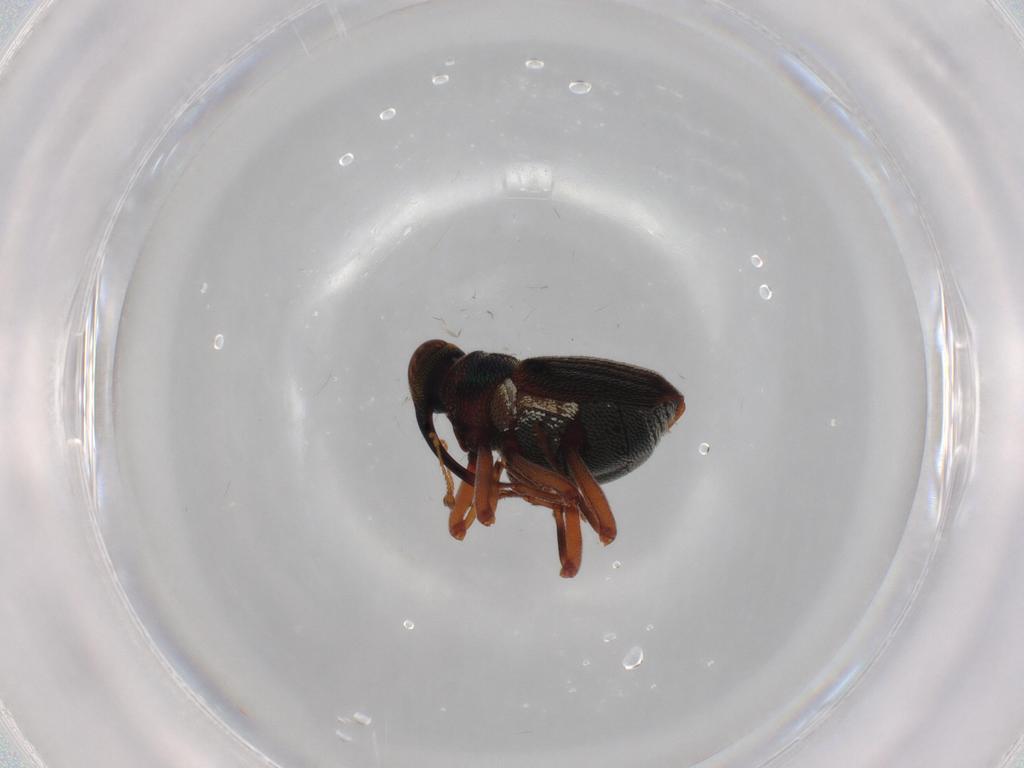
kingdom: Animalia
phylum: Arthropoda
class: Insecta
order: Coleoptera
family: Curculionidae
